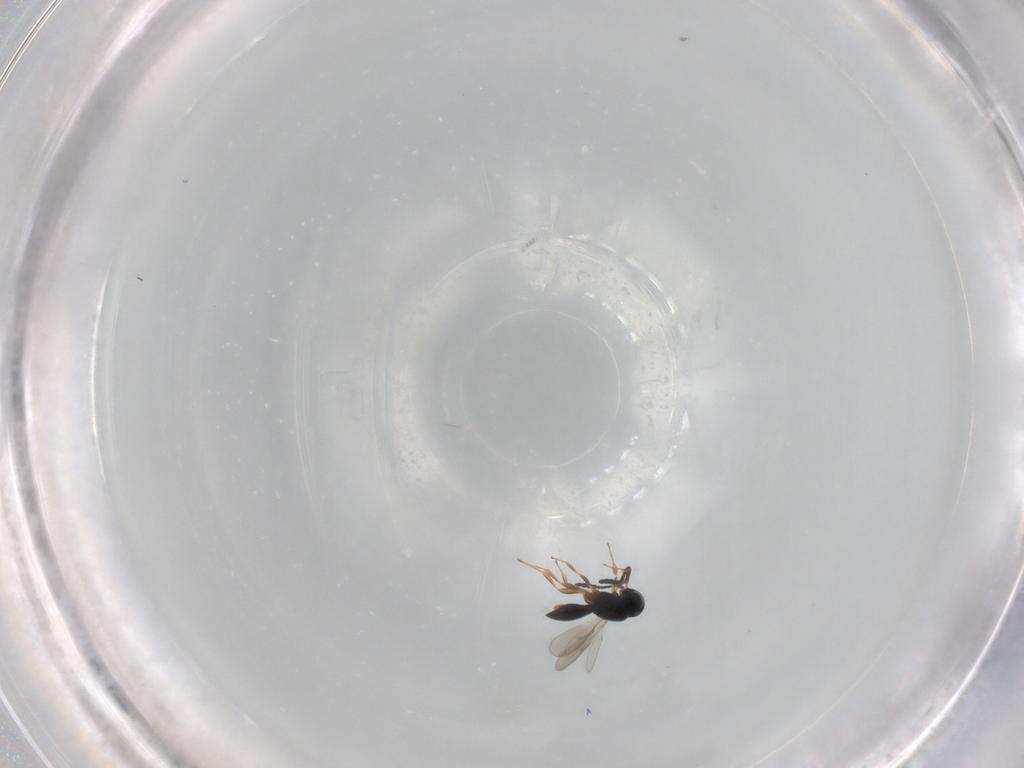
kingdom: Animalia
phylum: Arthropoda
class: Insecta
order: Hymenoptera
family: Scelionidae
